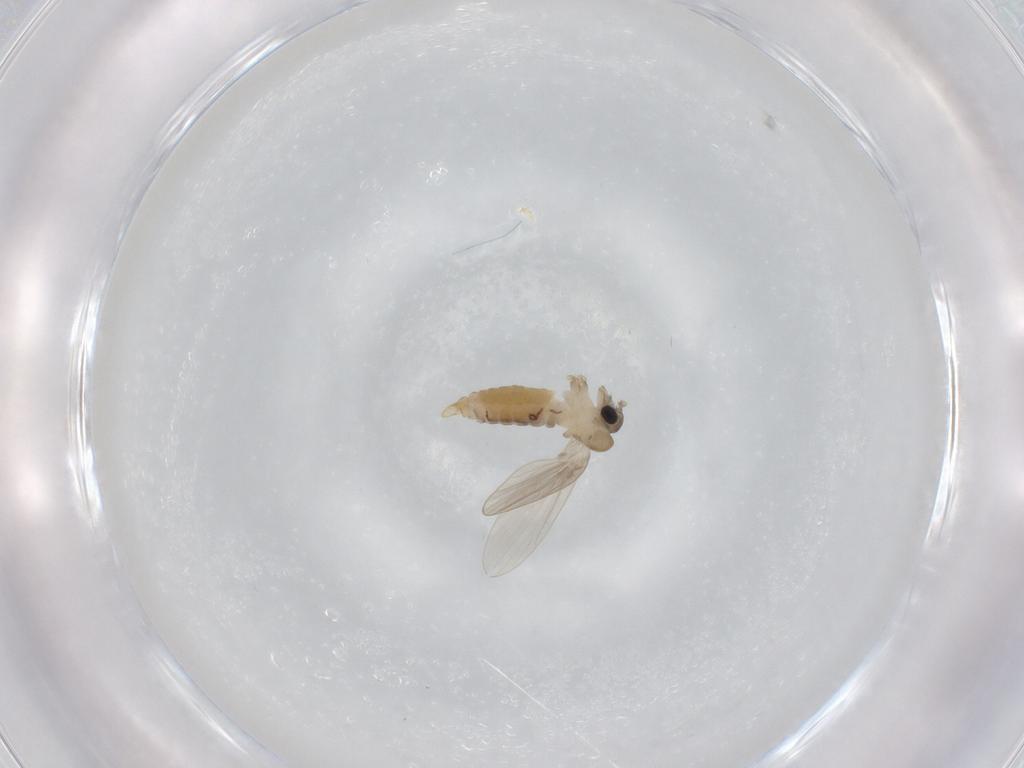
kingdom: Animalia
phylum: Arthropoda
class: Insecta
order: Diptera
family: Psychodidae
